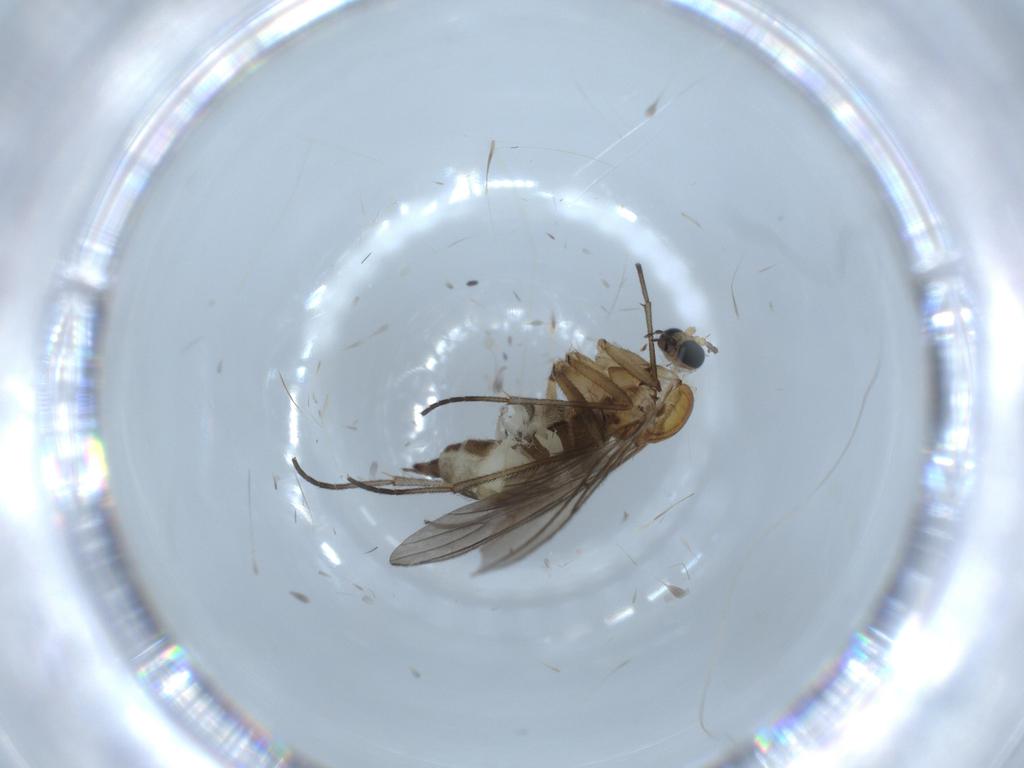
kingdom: Animalia
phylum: Arthropoda
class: Insecta
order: Diptera
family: Sciaridae
